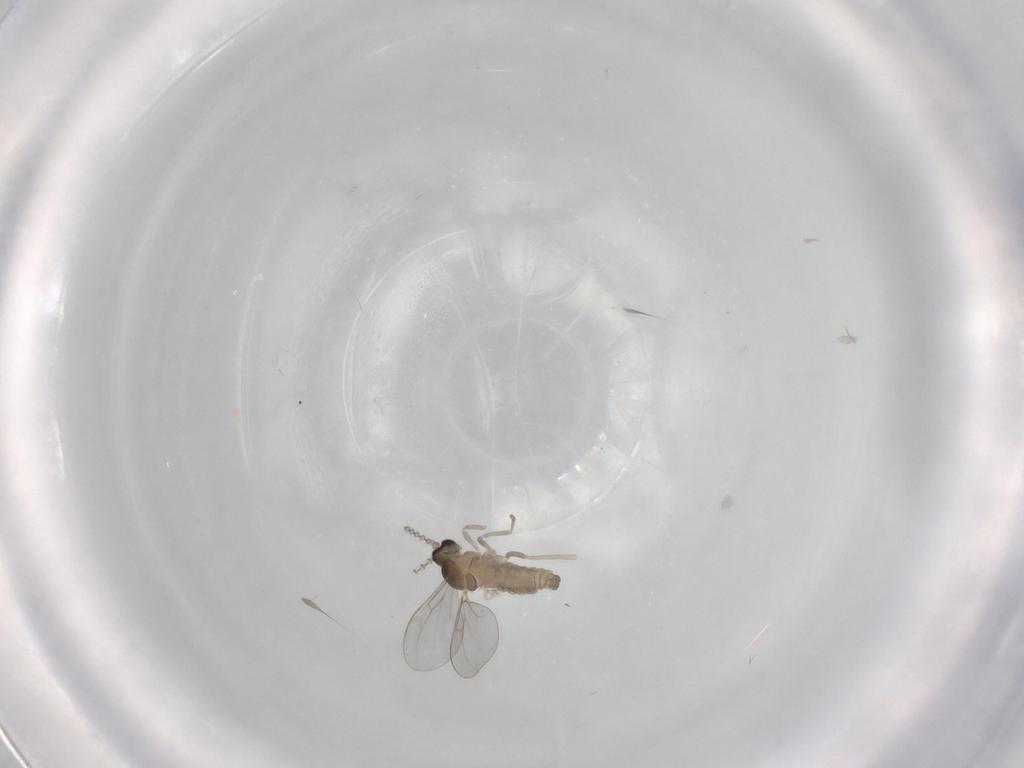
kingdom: Animalia
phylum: Arthropoda
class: Insecta
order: Diptera
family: Cecidomyiidae
